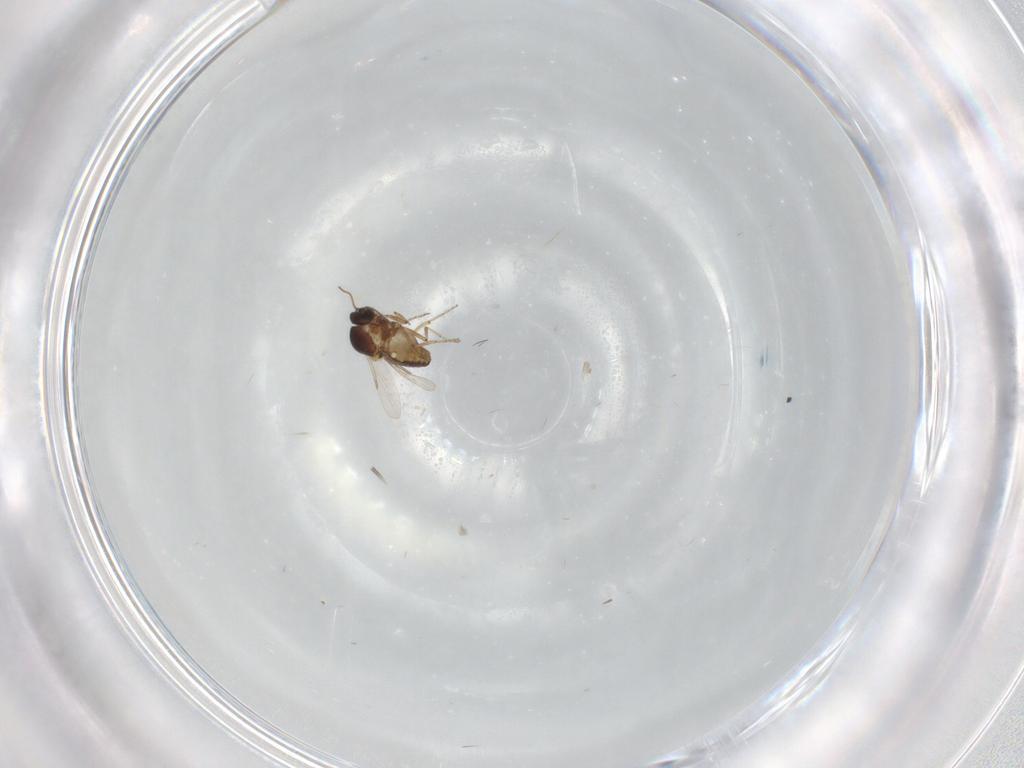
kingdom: Animalia
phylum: Arthropoda
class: Insecta
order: Diptera
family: Ceratopogonidae
